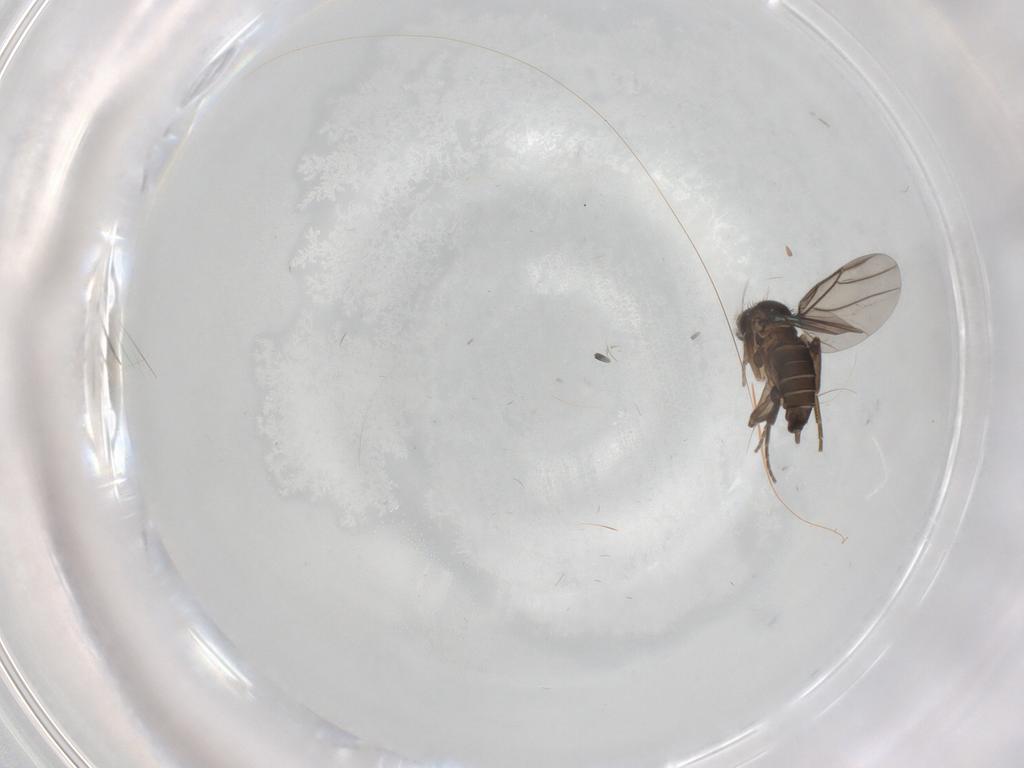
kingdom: Animalia
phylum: Arthropoda
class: Insecta
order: Diptera
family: Phoridae
